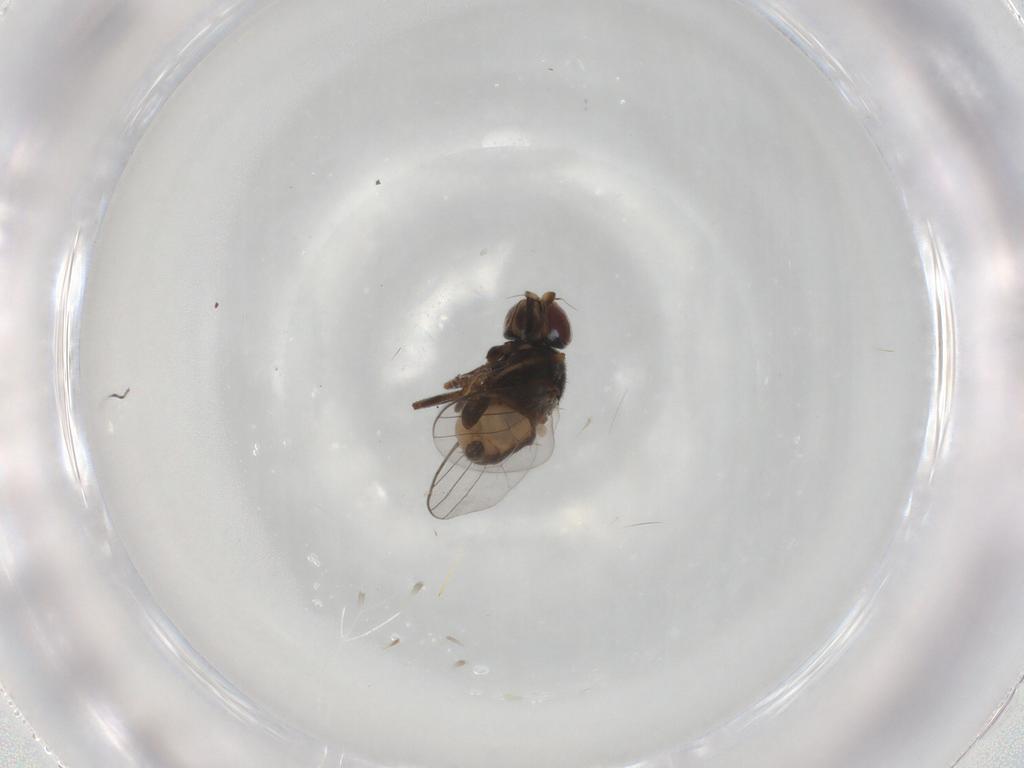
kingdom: Animalia
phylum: Arthropoda
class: Insecta
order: Diptera
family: Chloropidae
